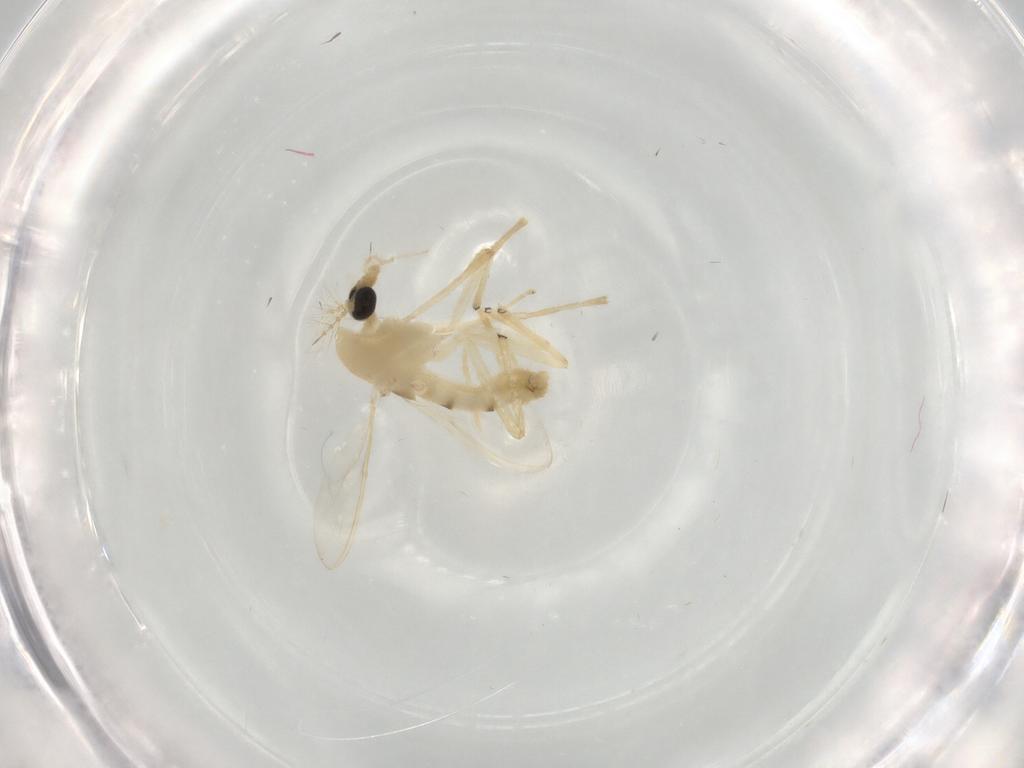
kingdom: Animalia
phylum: Arthropoda
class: Insecta
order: Diptera
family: Chironomidae
